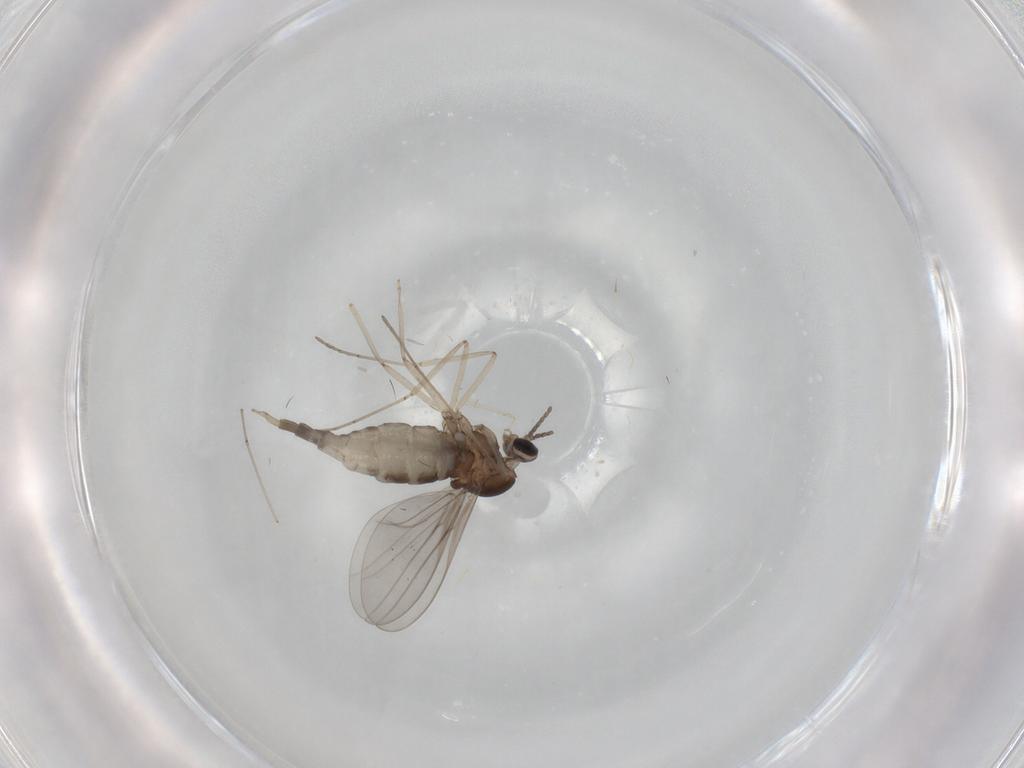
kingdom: Animalia
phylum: Arthropoda
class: Insecta
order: Diptera
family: Cecidomyiidae
